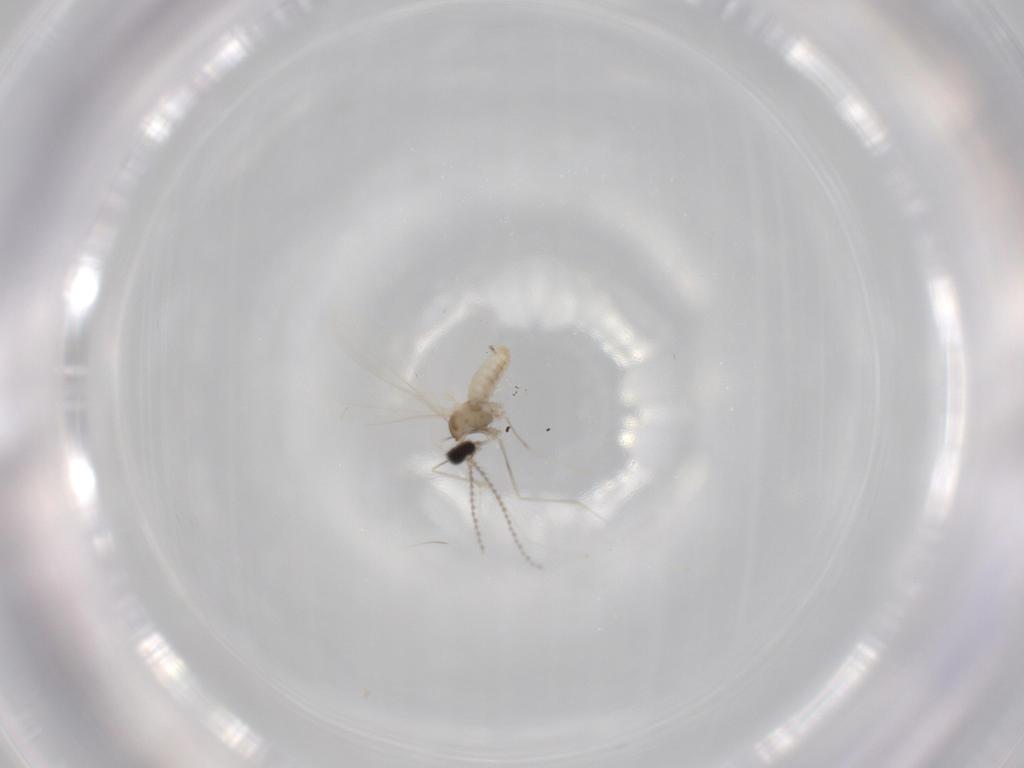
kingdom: Animalia
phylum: Arthropoda
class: Insecta
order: Diptera
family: Cecidomyiidae
